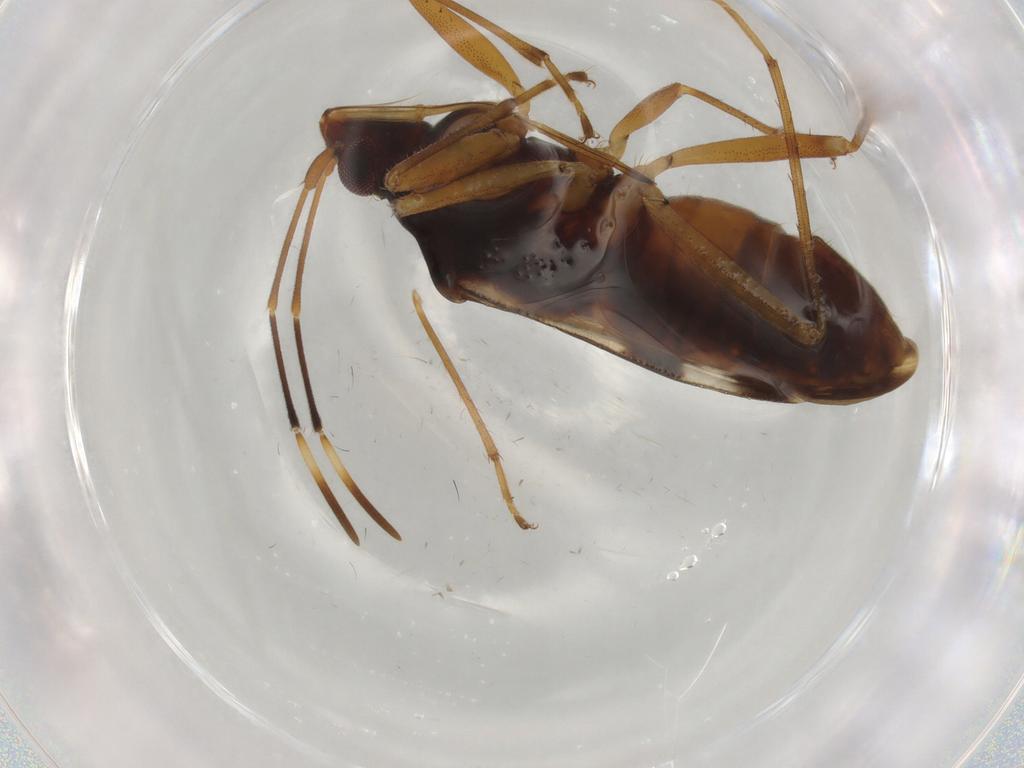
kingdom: Animalia
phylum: Arthropoda
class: Insecta
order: Hemiptera
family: Rhyparochromidae
